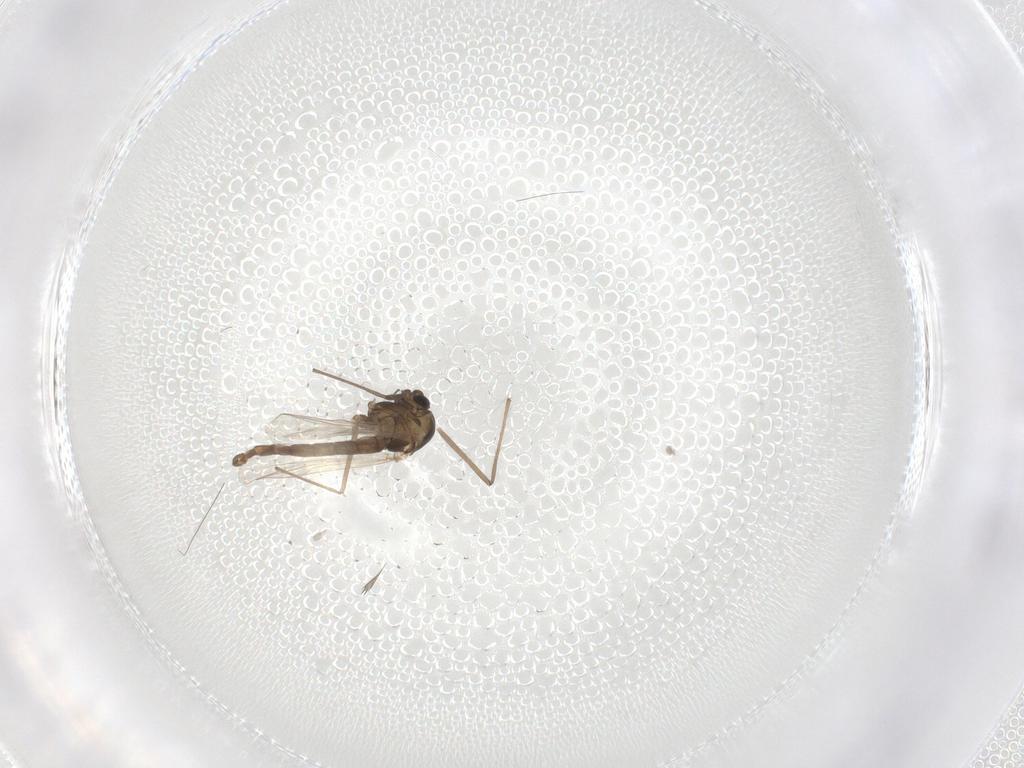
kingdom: Animalia
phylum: Arthropoda
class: Insecta
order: Diptera
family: Chironomidae
